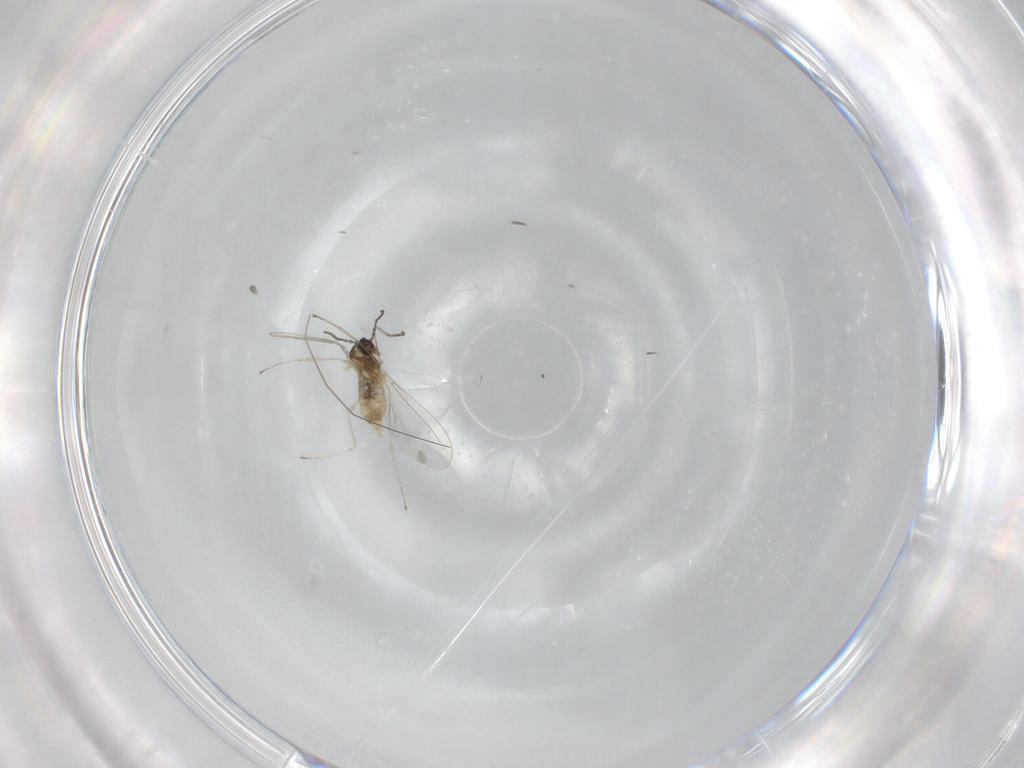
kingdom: Animalia
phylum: Arthropoda
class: Insecta
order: Diptera
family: Cecidomyiidae
